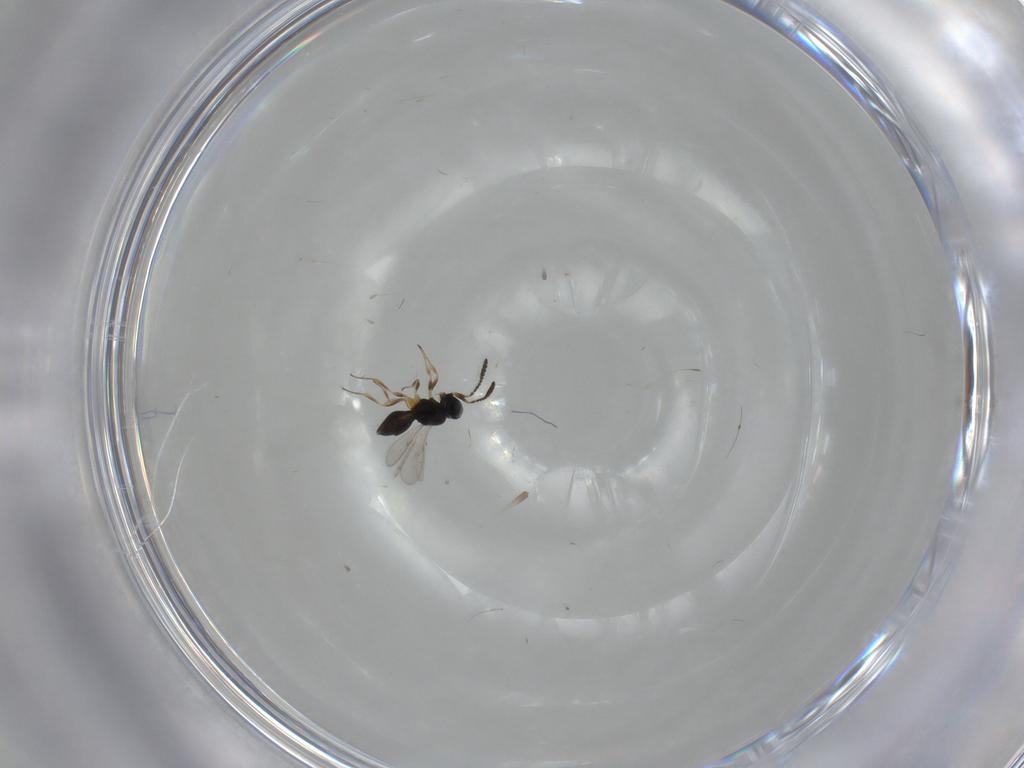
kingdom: Animalia
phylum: Arthropoda
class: Insecta
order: Hymenoptera
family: Scelionidae
